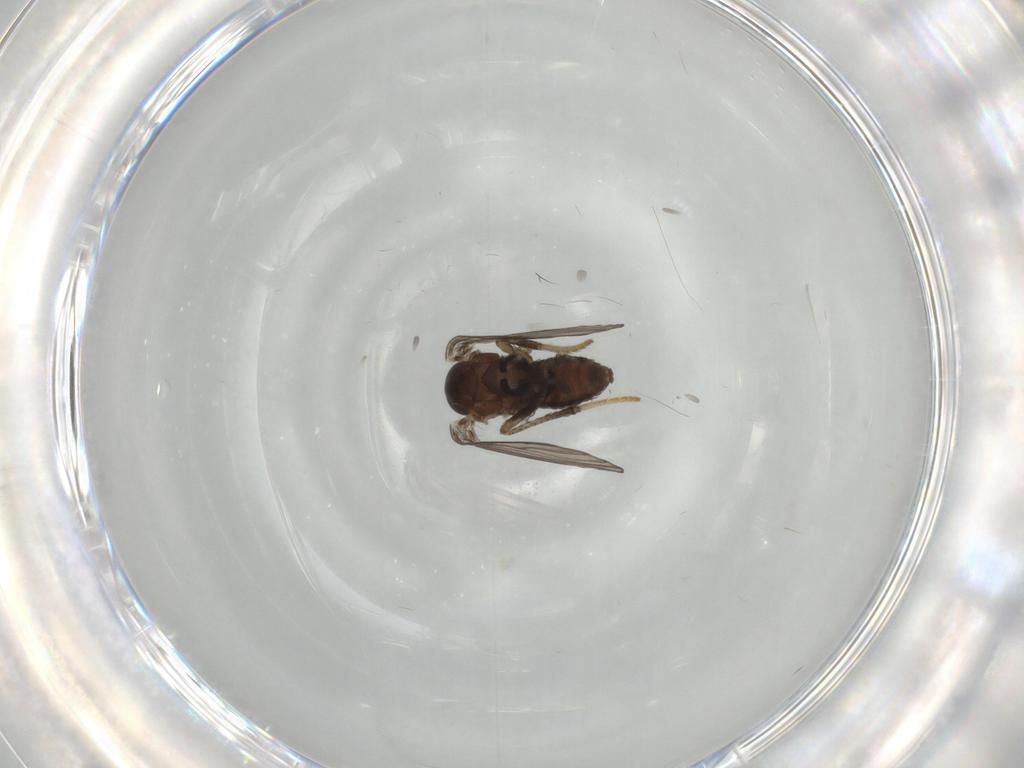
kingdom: Animalia
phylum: Arthropoda
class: Insecta
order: Diptera
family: Psychodidae
